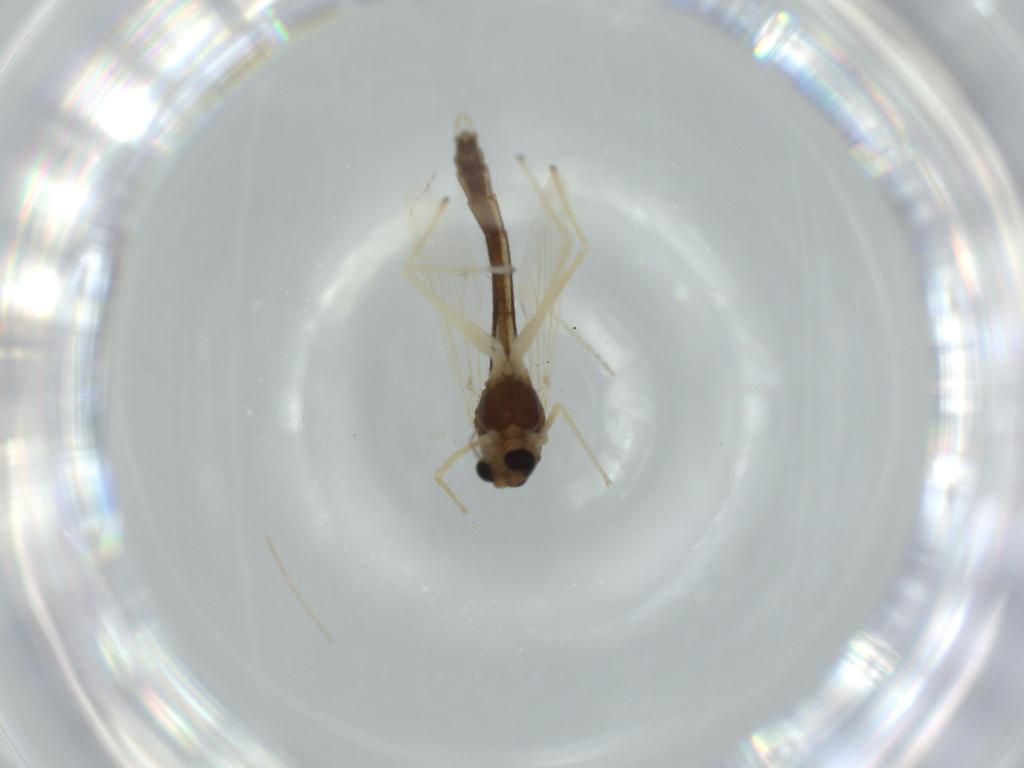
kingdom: Animalia
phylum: Arthropoda
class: Insecta
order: Diptera
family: Chironomidae
